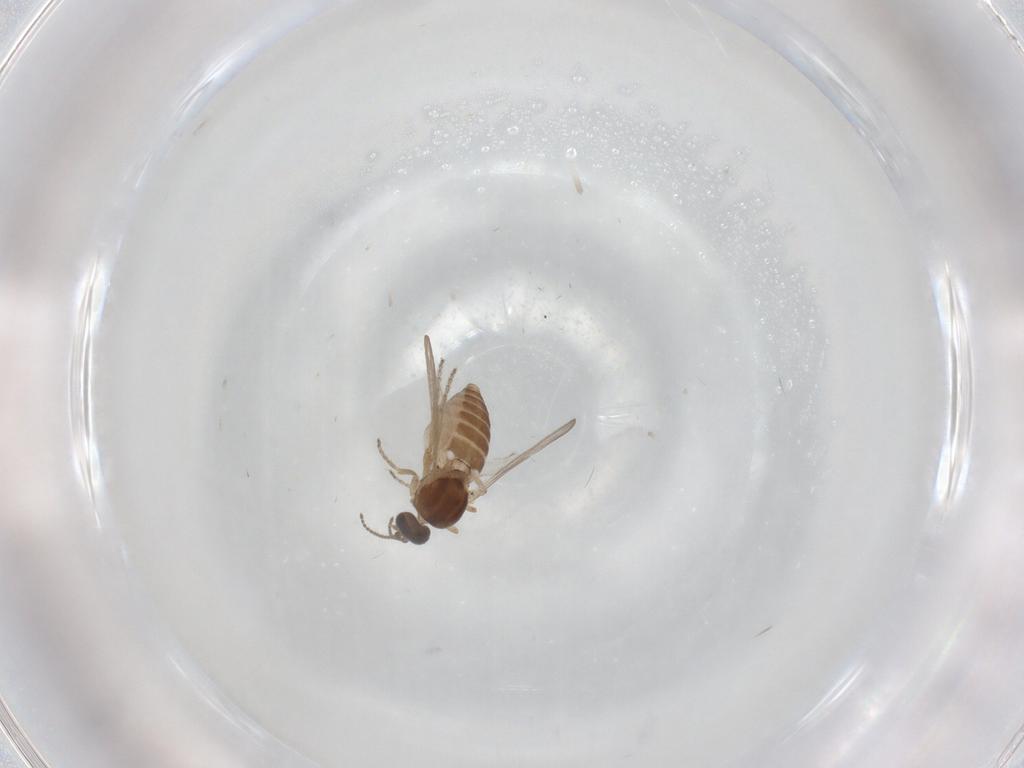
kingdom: Animalia
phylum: Arthropoda
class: Insecta
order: Diptera
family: Ceratopogonidae
